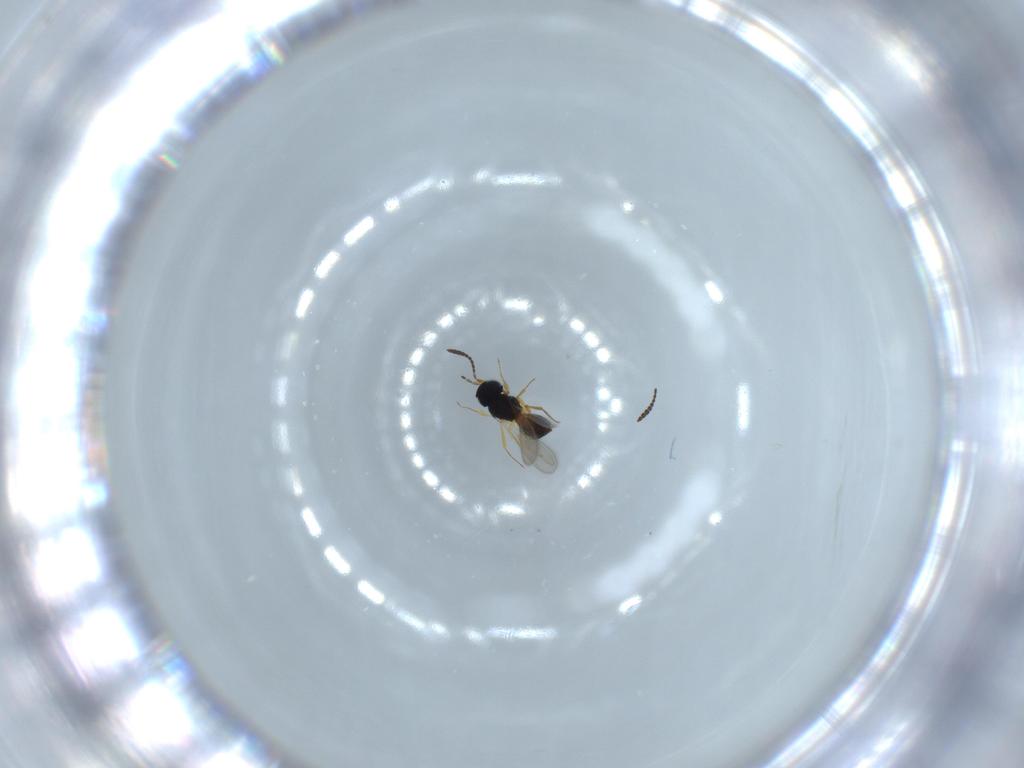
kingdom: Animalia
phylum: Arthropoda
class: Insecta
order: Hymenoptera
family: Scelionidae
